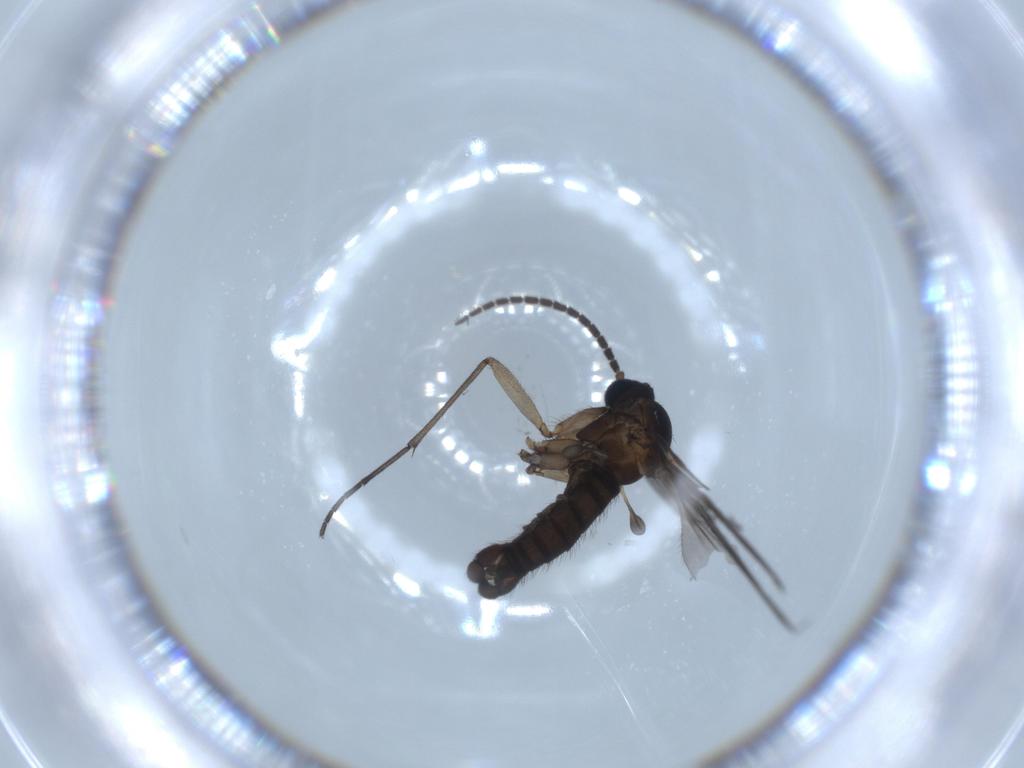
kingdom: Animalia
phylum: Arthropoda
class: Insecta
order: Diptera
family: Sciaridae
